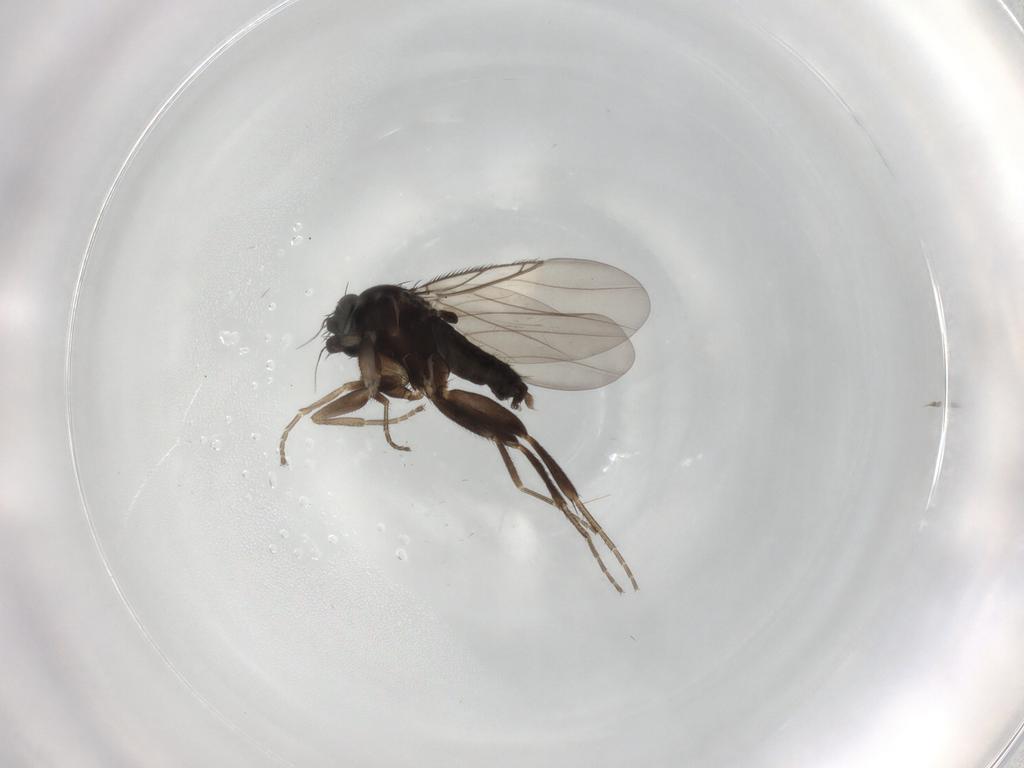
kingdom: Animalia
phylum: Arthropoda
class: Insecta
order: Diptera
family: Phoridae
